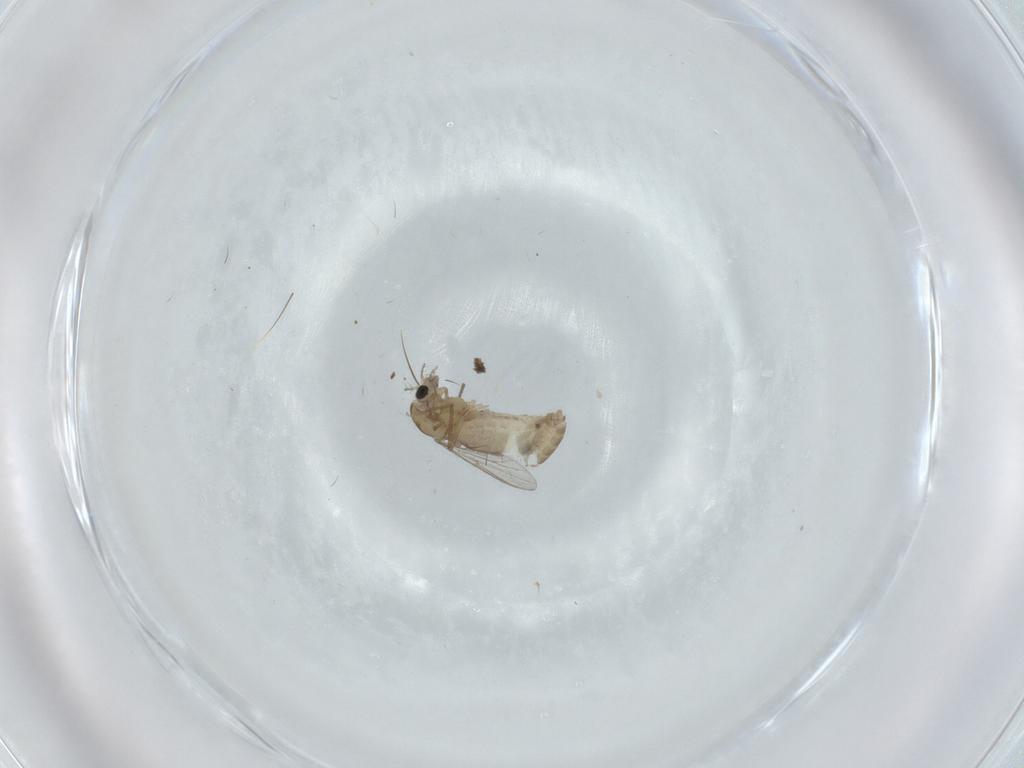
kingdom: Animalia
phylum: Arthropoda
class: Insecta
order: Diptera
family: Chironomidae
